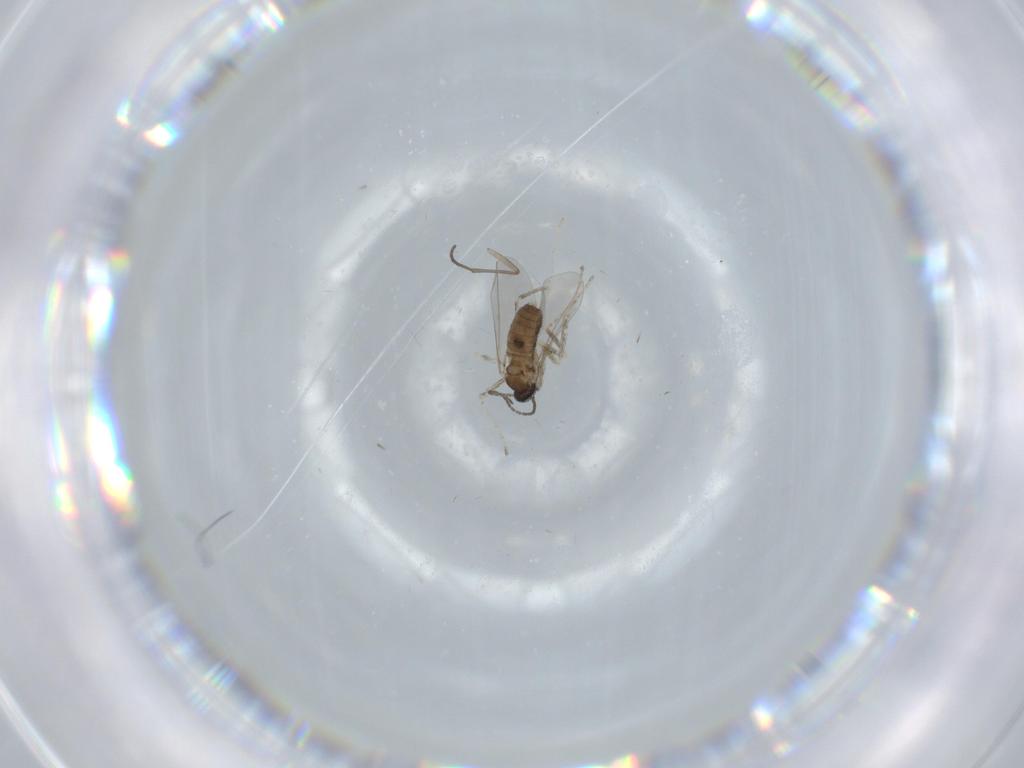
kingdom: Animalia
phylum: Arthropoda
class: Insecta
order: Diptera
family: Cecidomyiidae
